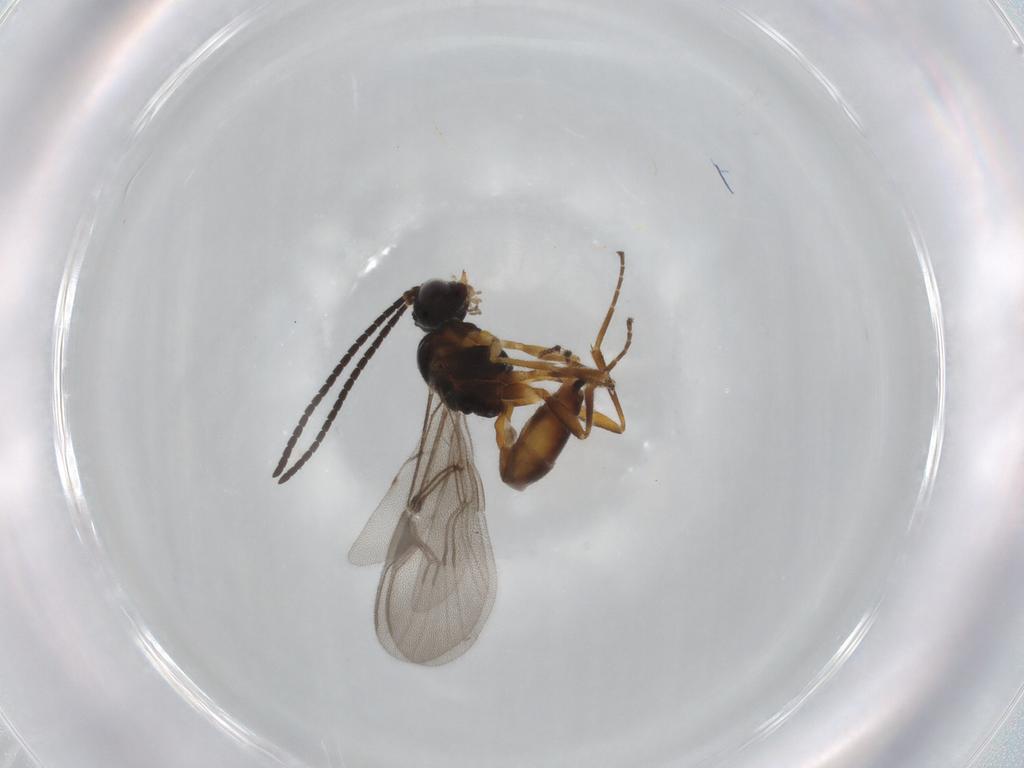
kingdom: Animalia
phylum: Arthropoda
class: Insecta
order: Hymenoptera
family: Braconidae
